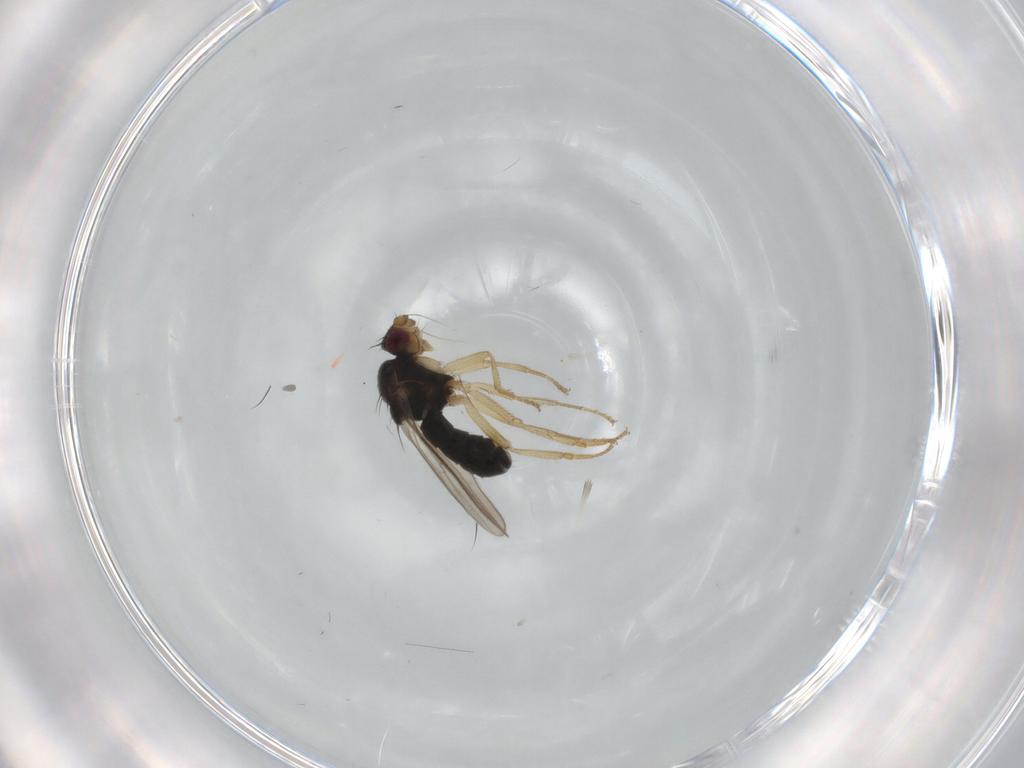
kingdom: Animalia
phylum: Arthropoda
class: Insecta
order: Diptera
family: Sphaeroceridae
